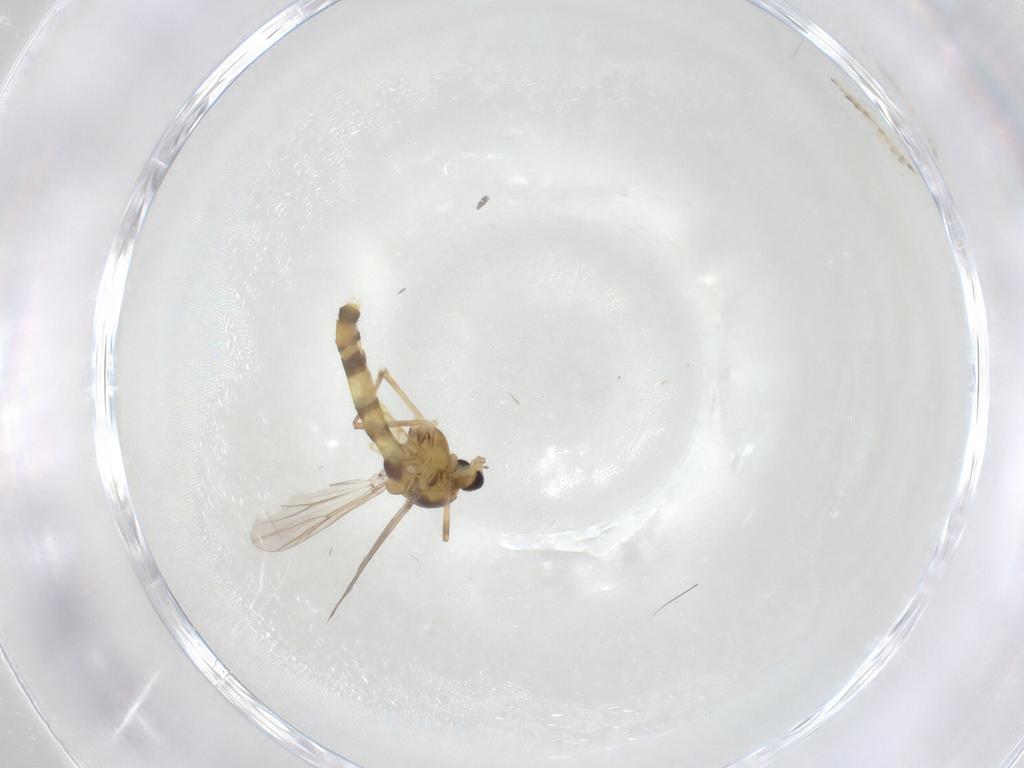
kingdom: Animalia
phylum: Arthropoda
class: Insecta
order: Diptera
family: Chironomidae
